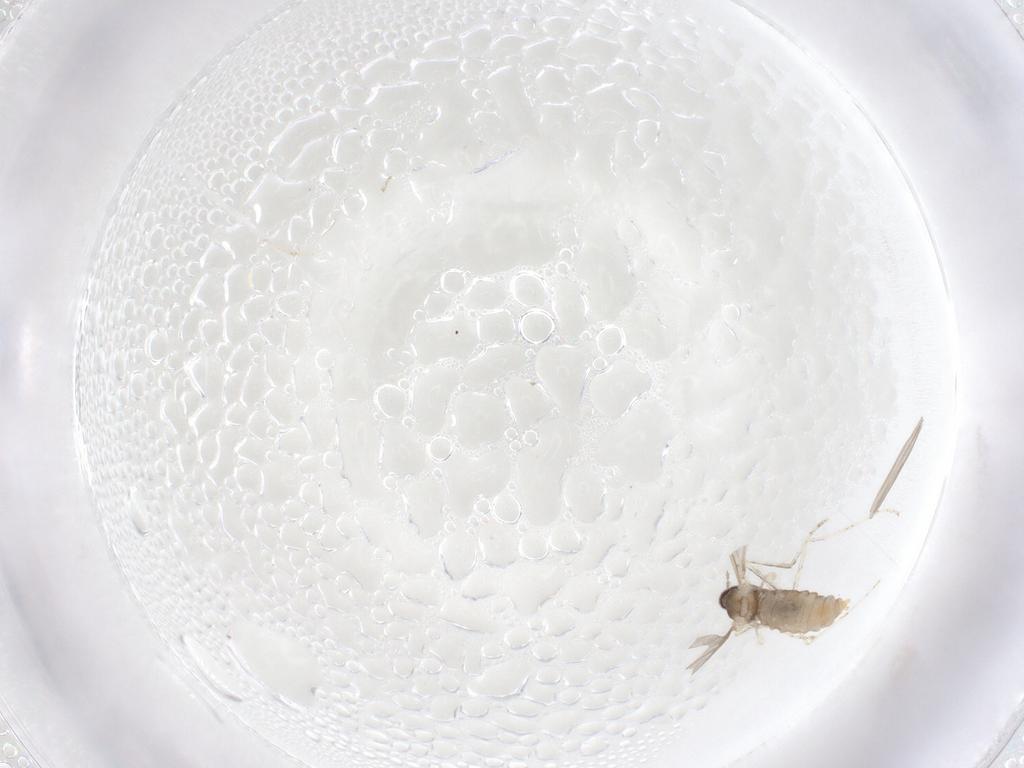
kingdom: Animalia
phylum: Arthropoda
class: Insecta
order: Diptera
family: Cecidomyiidae
